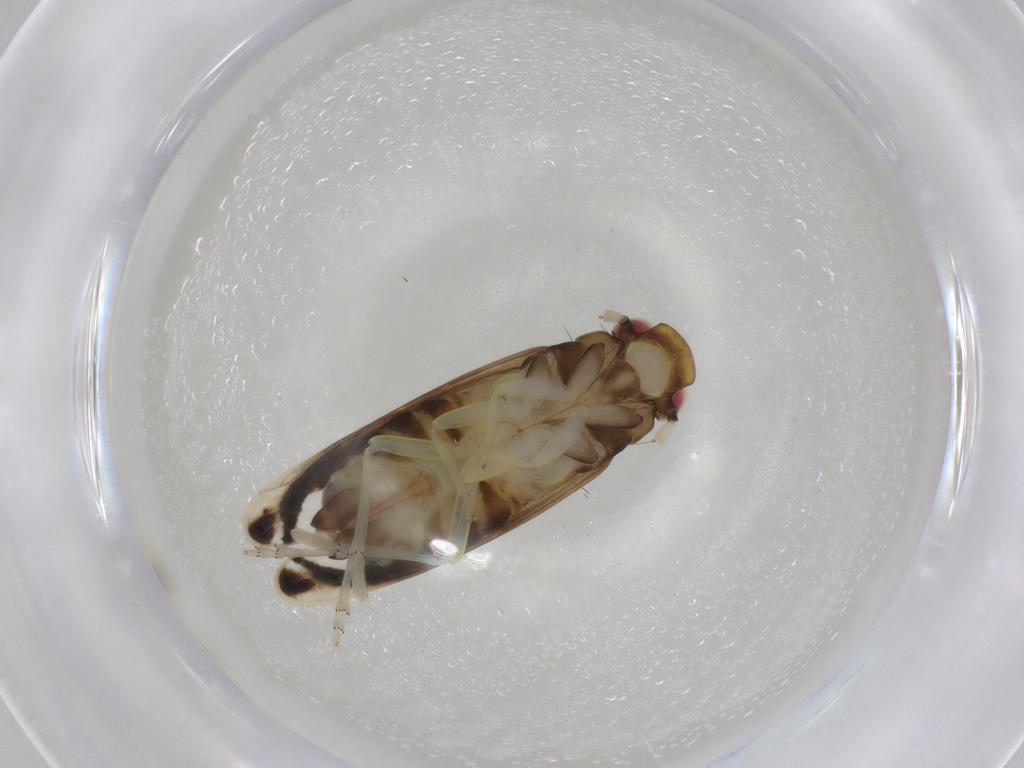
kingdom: Animalia
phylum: Arthropoda
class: Insecta
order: Hemiptera
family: Delphacidae
